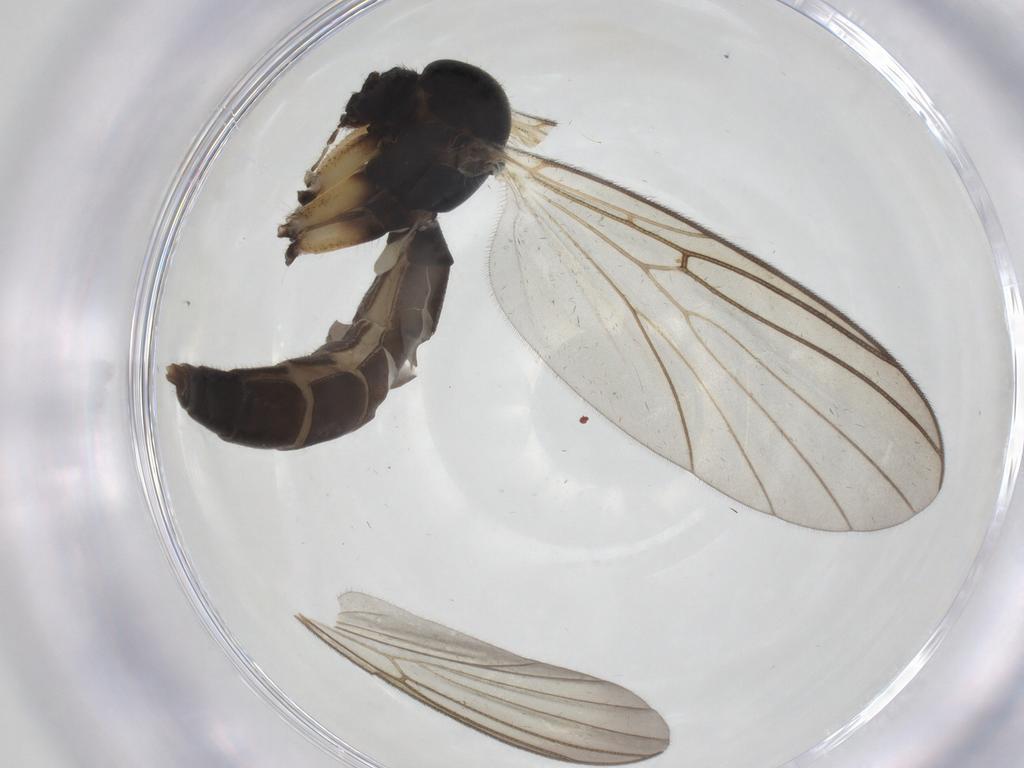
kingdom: Animalia
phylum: Arthropoda
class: Insecta
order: Diptera
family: Mycetophilidae
